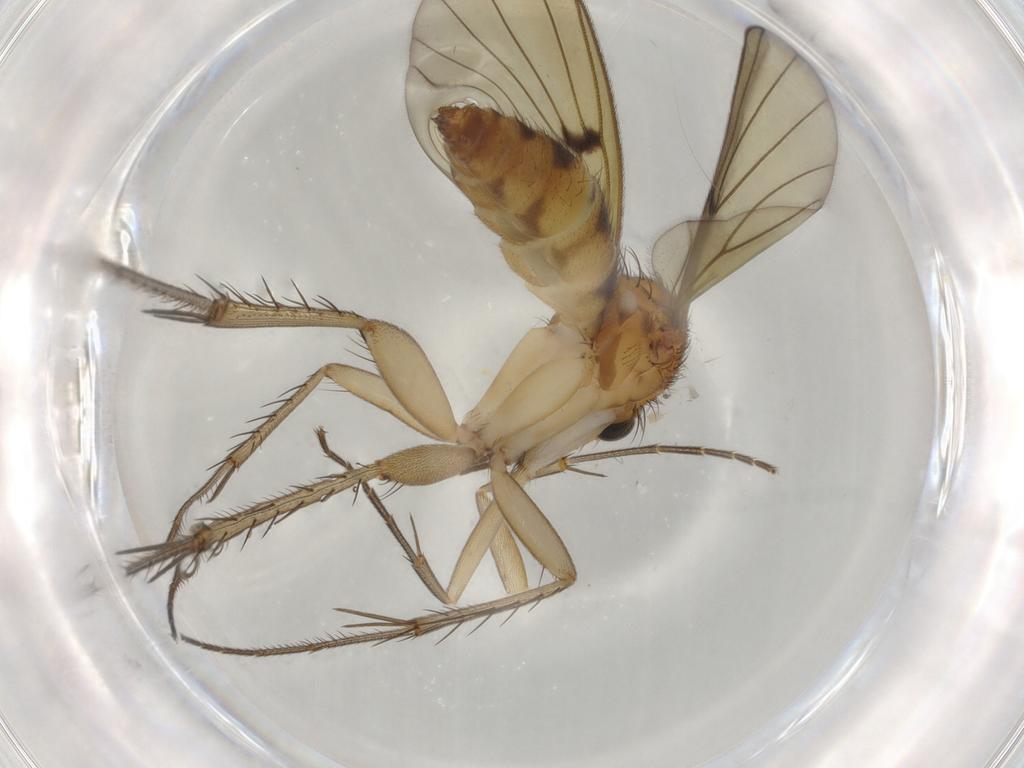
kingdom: Animalia
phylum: Arthropoda
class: Insecta
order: Diptera
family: Mycetophilidae
